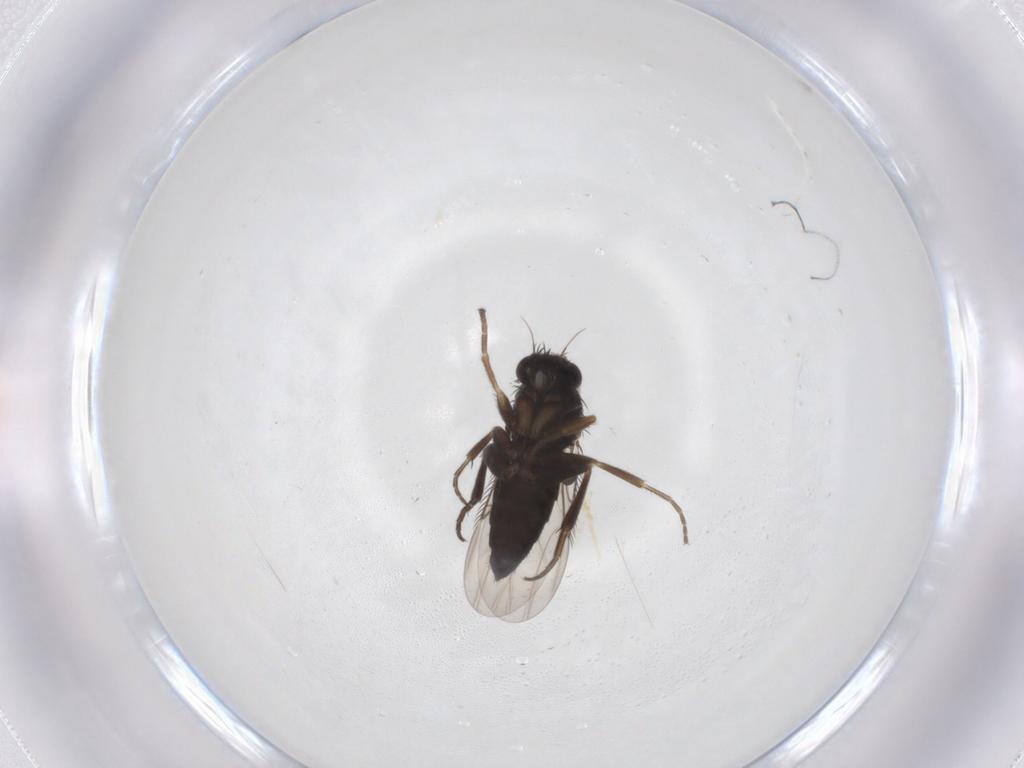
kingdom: Animalia
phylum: Arthropoda
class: Insecta
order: Diptera
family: Phoridae
